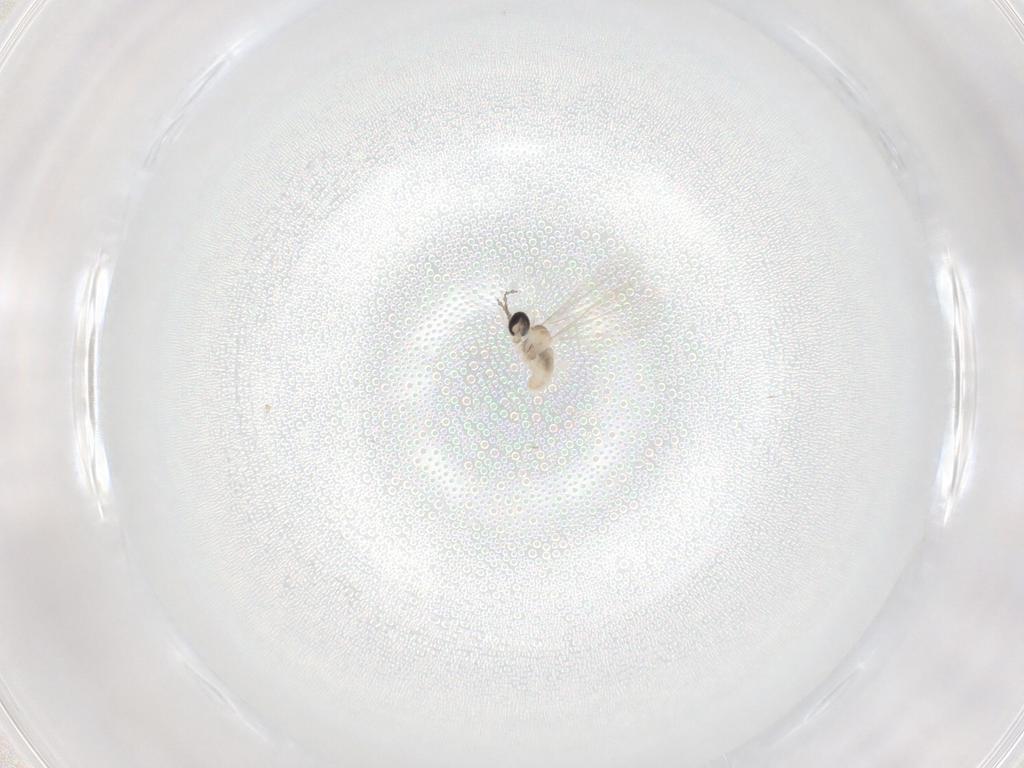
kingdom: Animalia
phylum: Arthropoda
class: Insecta
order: Diptera
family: Cecidomyiidae
